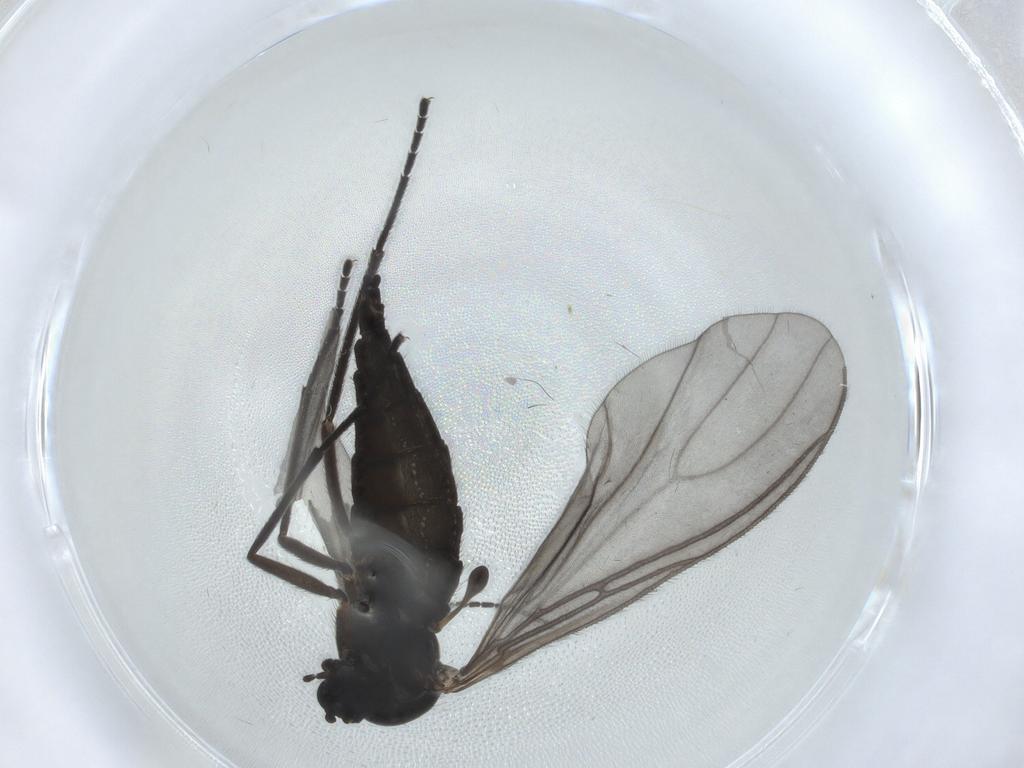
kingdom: Animalia
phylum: Arthropoda
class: Insecta
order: Diptera
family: Sciaridae
